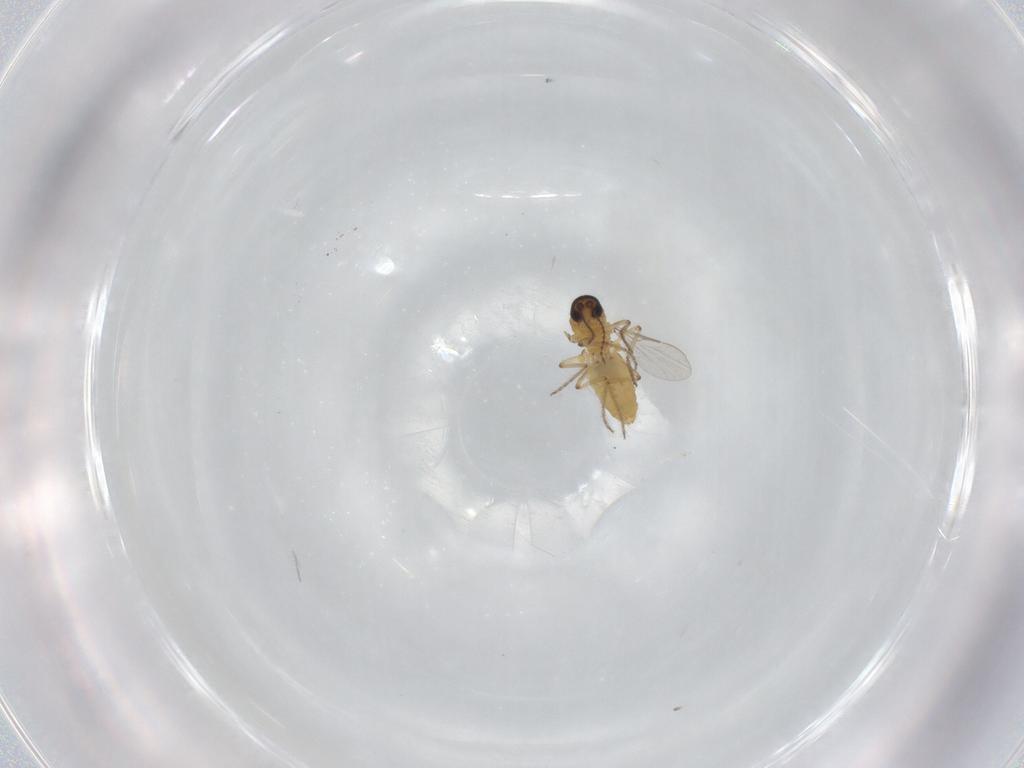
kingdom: Animalia
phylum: Arthropoda
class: Insecta
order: Diptera
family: Ceratopogonidae
